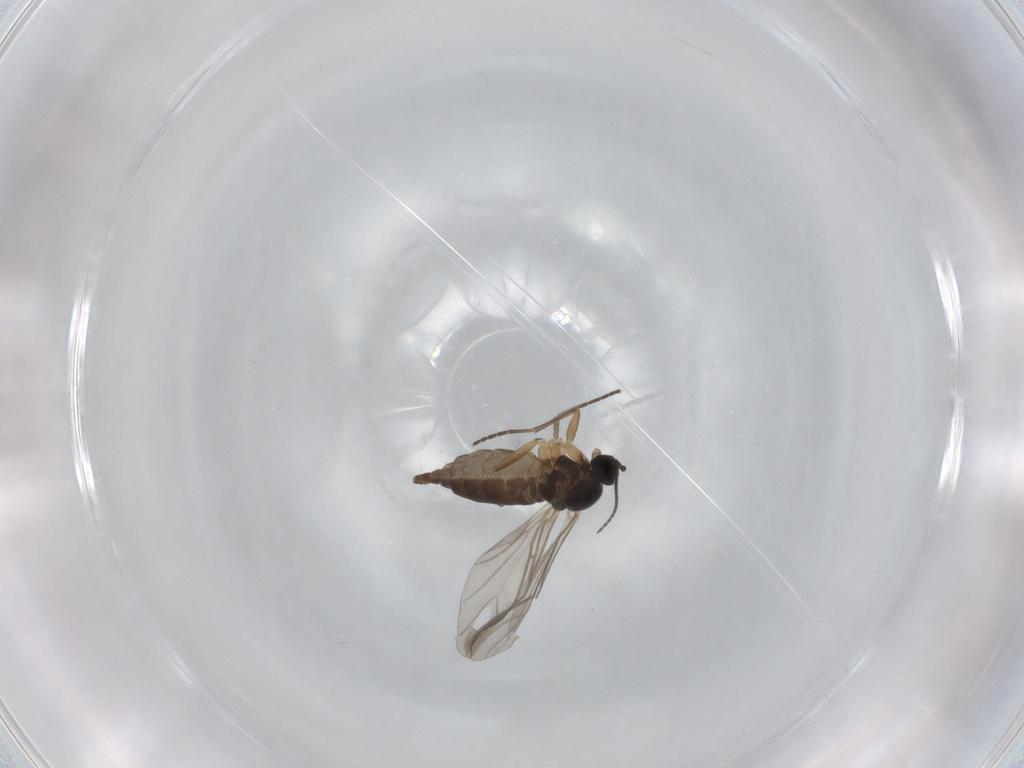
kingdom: Animalia
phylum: Arthropoda
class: Insecta
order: Diptera
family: Sciaridae
